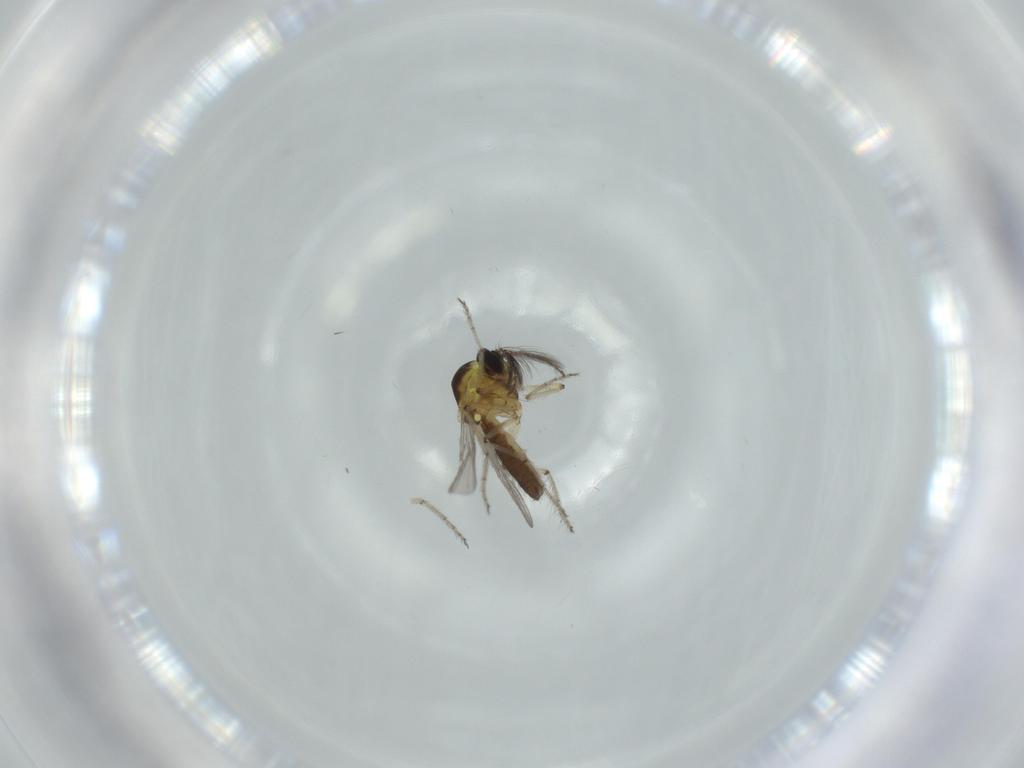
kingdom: Animalia
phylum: Arthropoda
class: Insecta
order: Diptera
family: Ceratopogonidae
